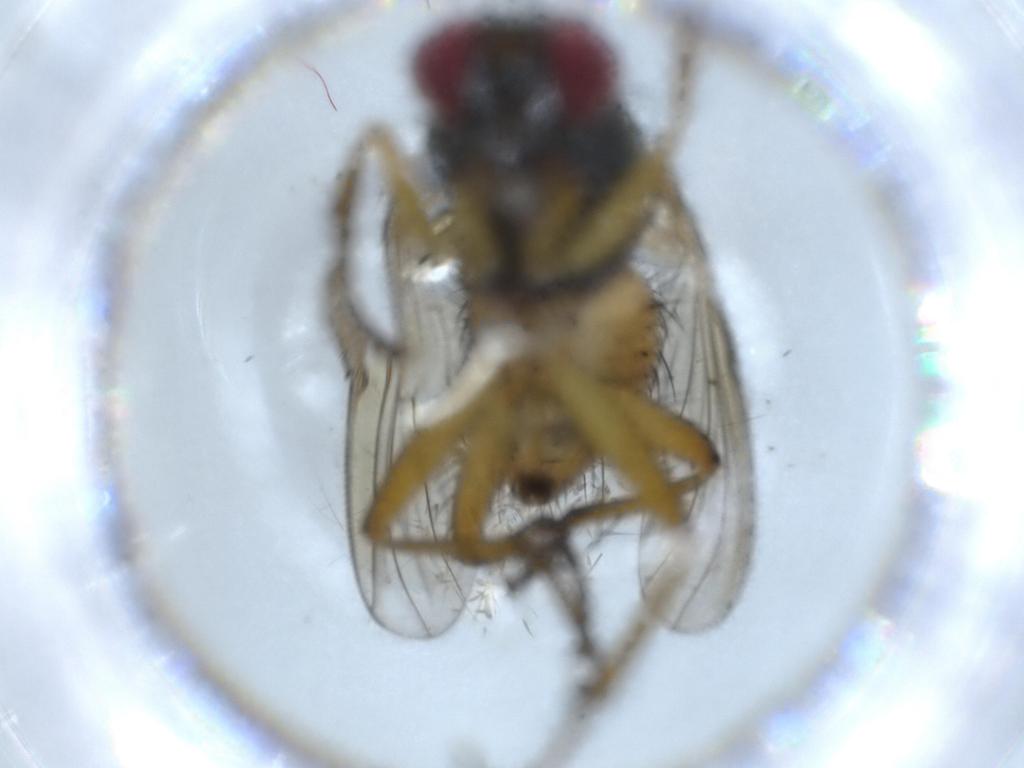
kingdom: Animalia
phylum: Arthropoda
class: Insecta
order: Diptera
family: Muscidae
